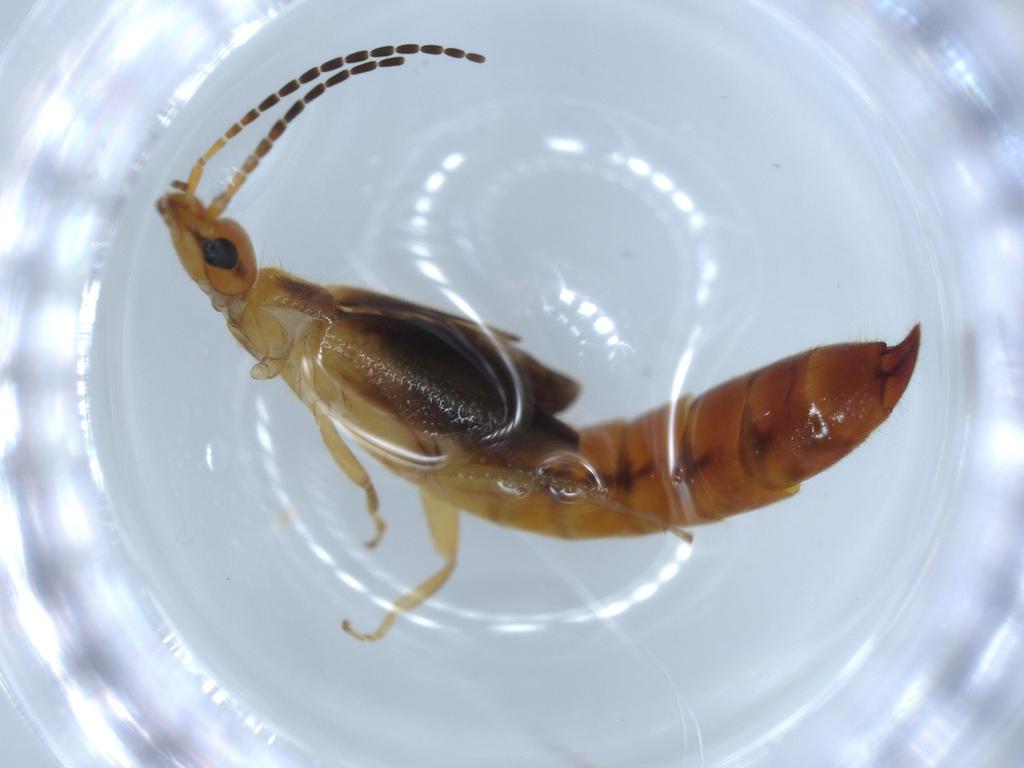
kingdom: Animalia
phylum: Arthropoda
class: Insecta
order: Dermaptera
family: Forficulidae
